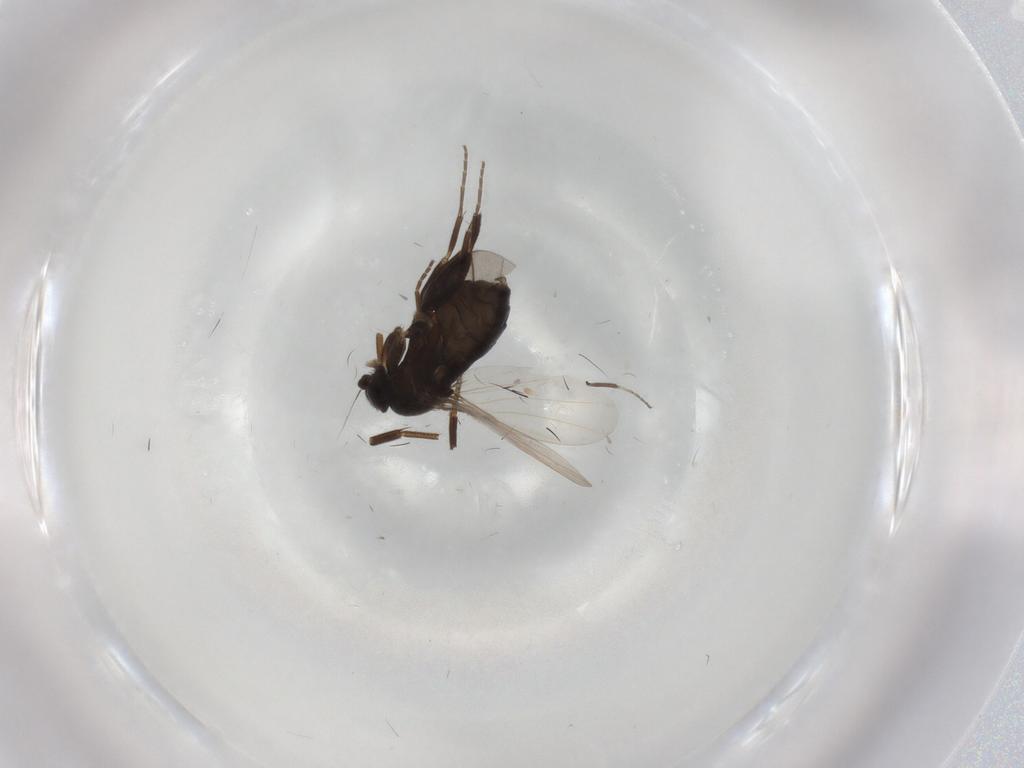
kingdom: Animalia
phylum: Arthropoda
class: Insecta
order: Diptera
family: Phoridae
